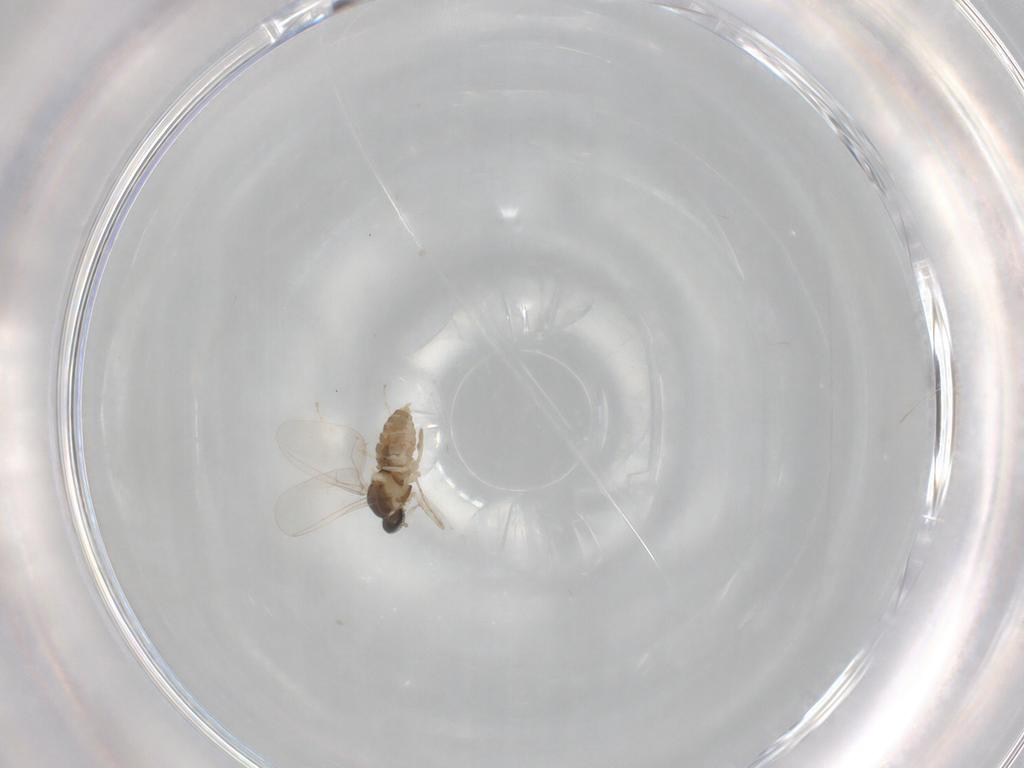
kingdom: Animalia
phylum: Arthropoda
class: Insecta
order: Diptera
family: Cecidomyiidae
